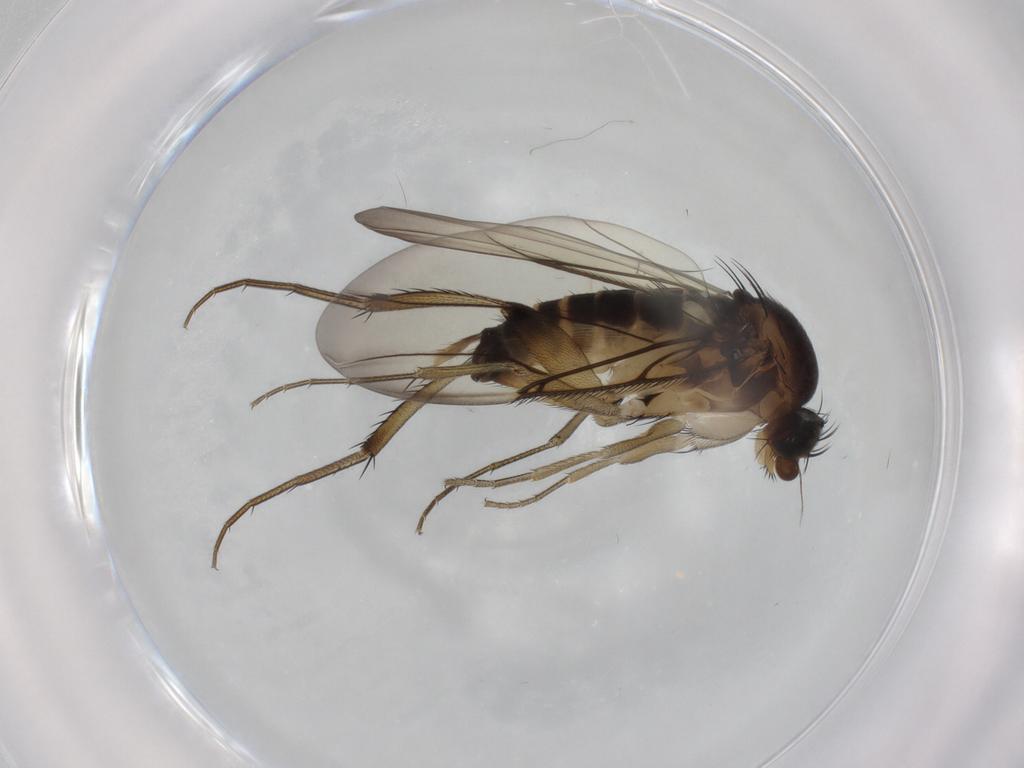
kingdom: Animalia
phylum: Arthropoda
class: Insecta
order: Diptera
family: Phoridae
